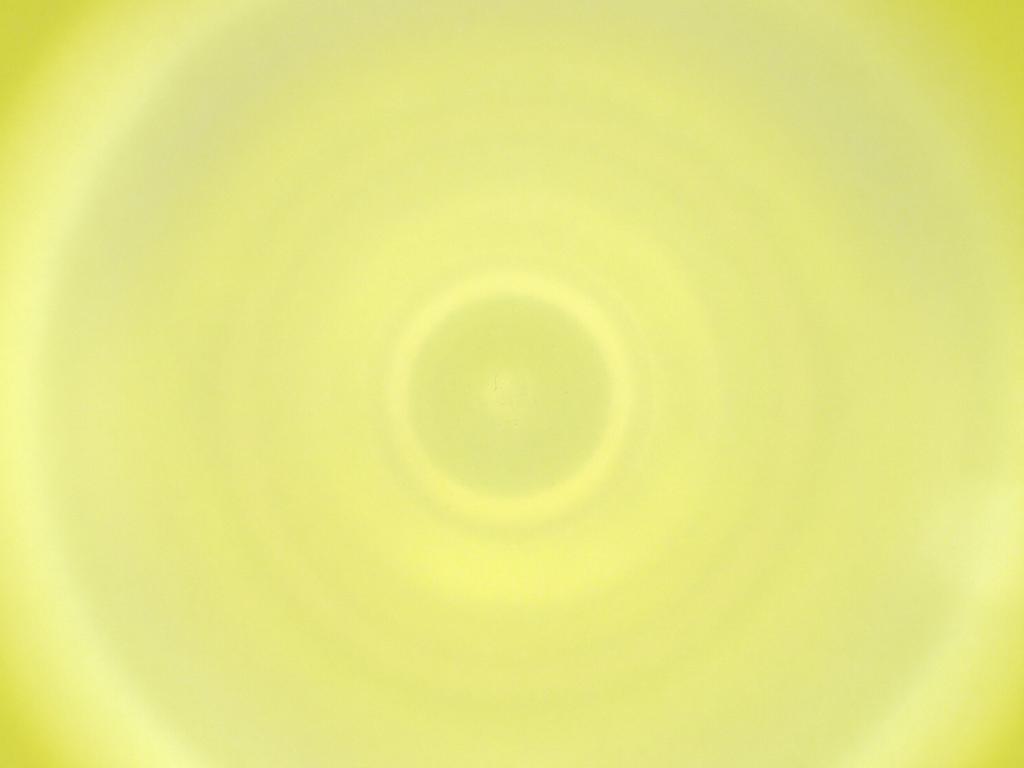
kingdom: Animalia
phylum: Arthropoda
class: Insecta
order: Diptera
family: Cecidomyiidae
